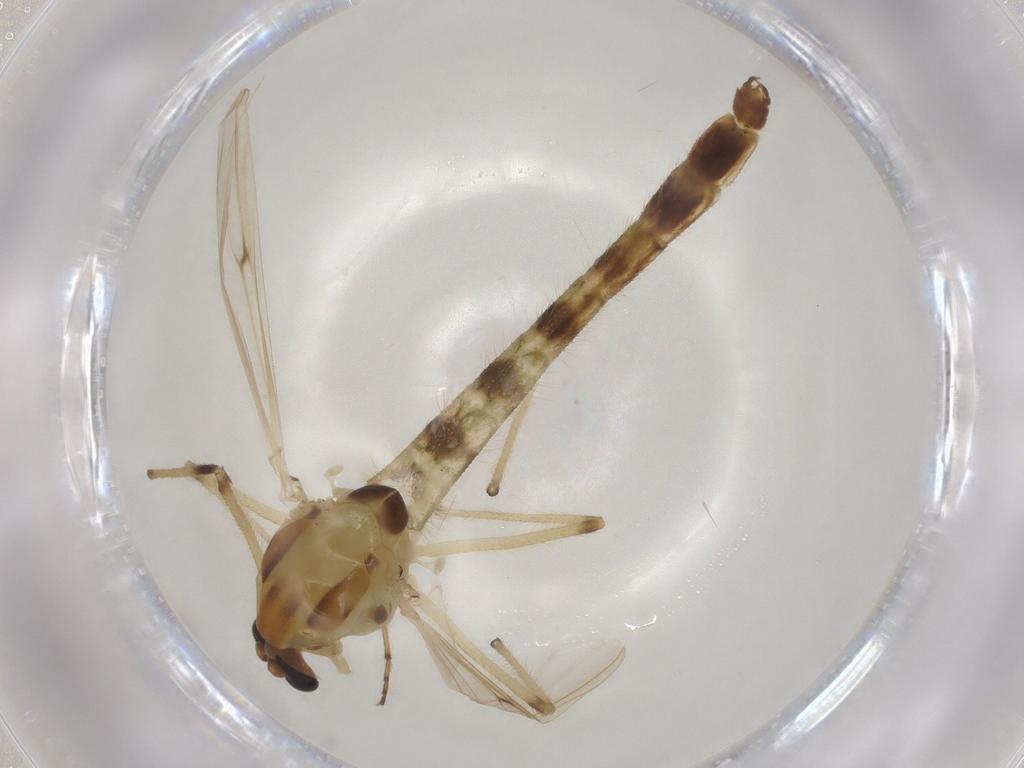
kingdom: Animalia
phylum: Arthropoda
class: Insecta
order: Diptera
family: Chironomidae
